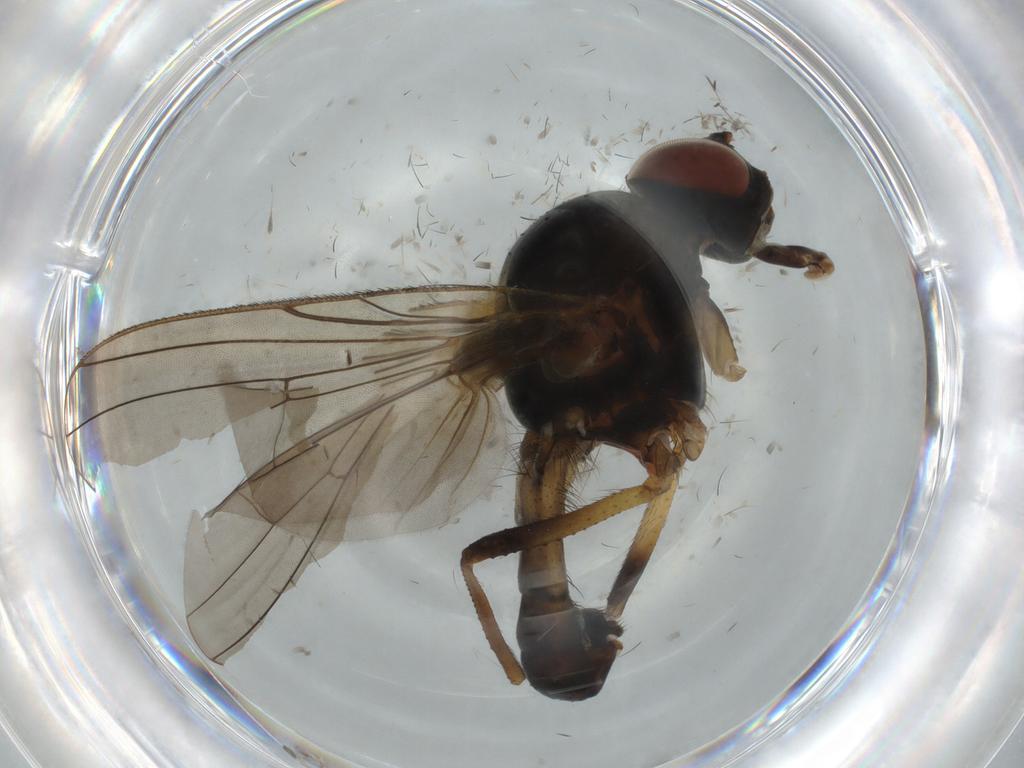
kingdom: Animalia
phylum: Arthropoda
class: Insecta
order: Diptera
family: Anthomyiidae
